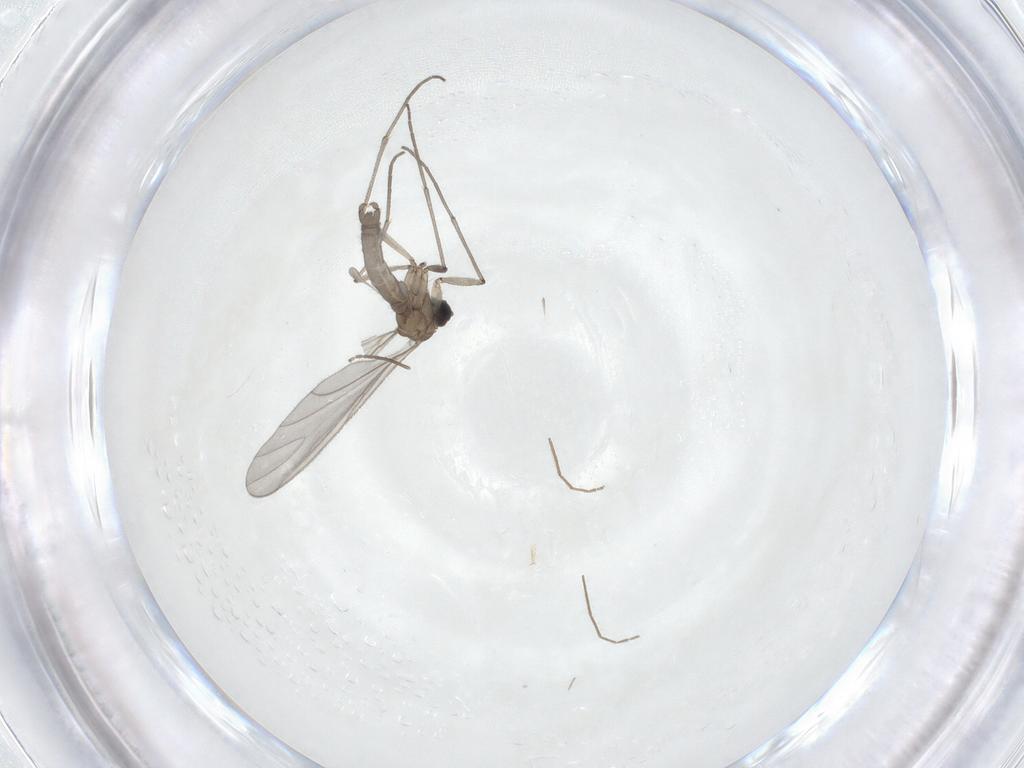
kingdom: Animalia
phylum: Arthropoda
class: Insecta
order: Diptera
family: Sciaridae
